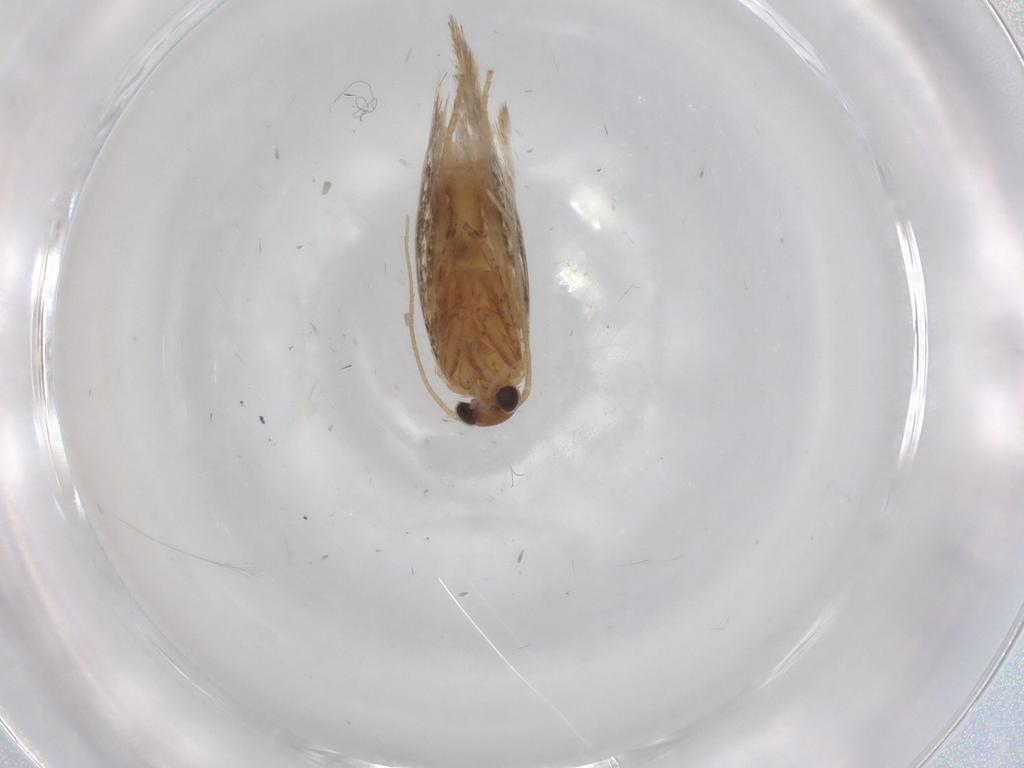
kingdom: Animalia
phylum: Arthropoda
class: Insecta
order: Lepidoptera
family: Elachistidae
